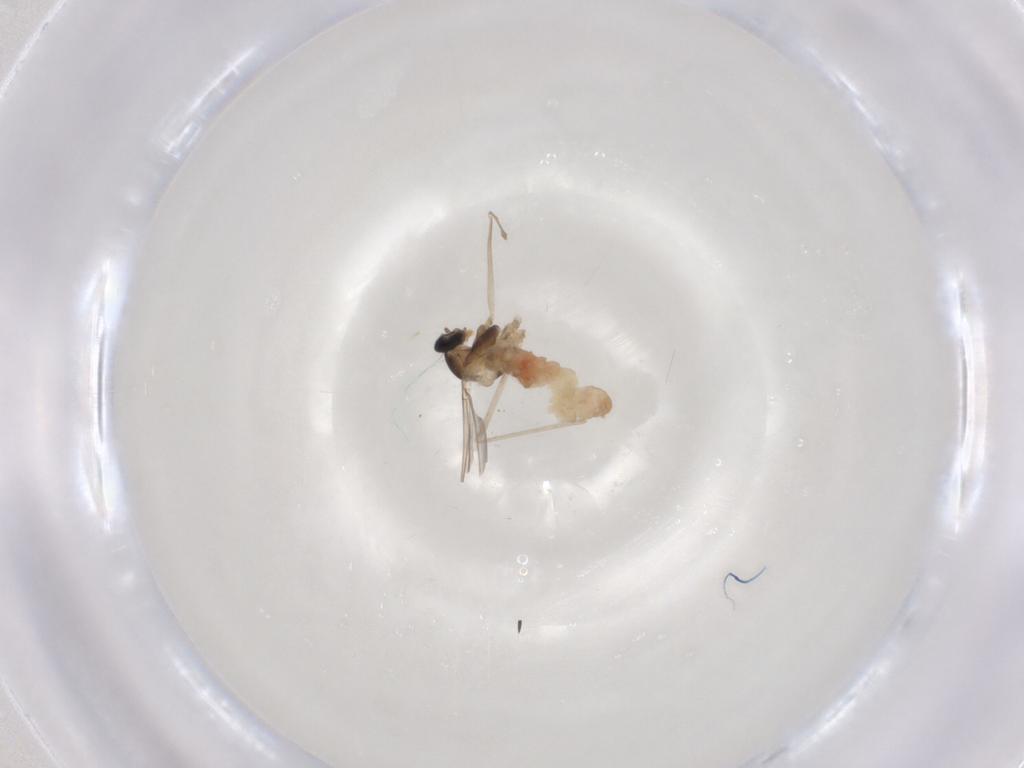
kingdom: Animalia
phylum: Arthropoda
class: Insecta
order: Diptera
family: Cecidomyiidae
